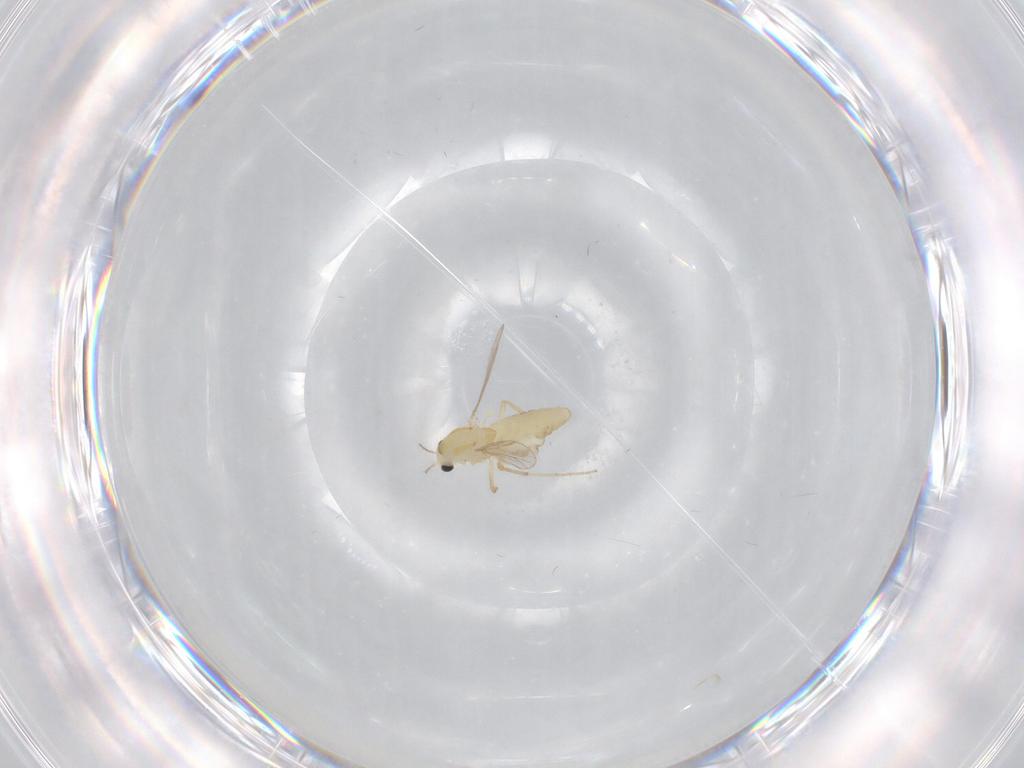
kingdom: Animalia
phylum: Arthropoda
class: Insecta
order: Diptera
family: Chironomidae
